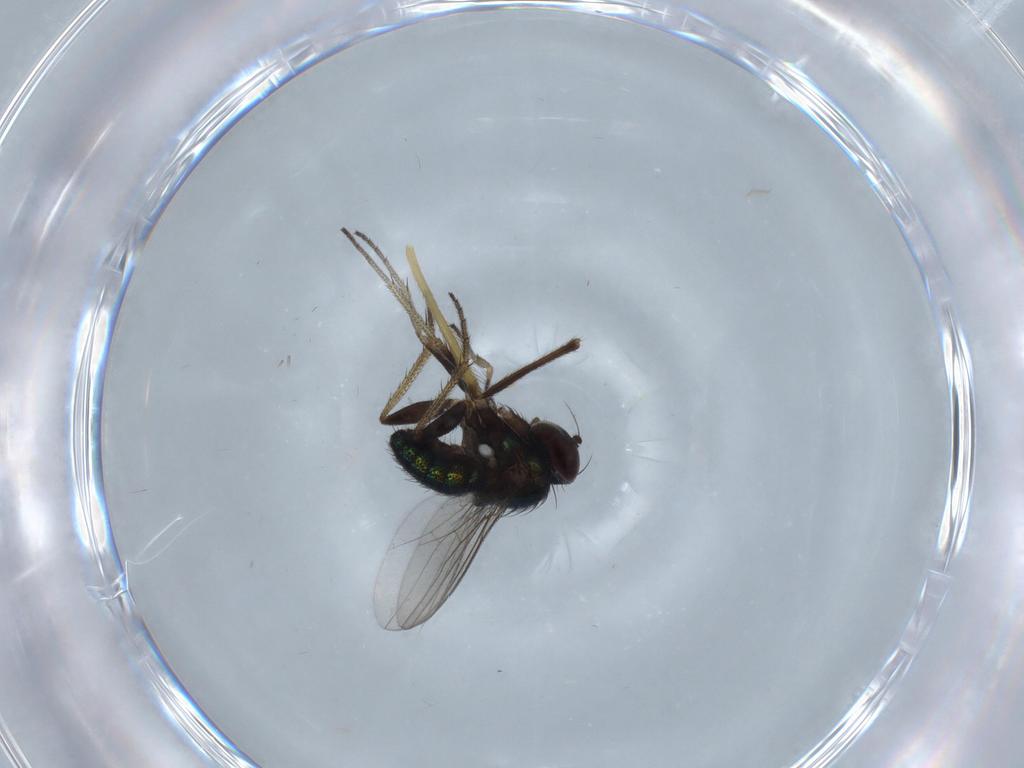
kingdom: Animalia
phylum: Arthropoda
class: Insecta
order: Diptera
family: Chironomidae
